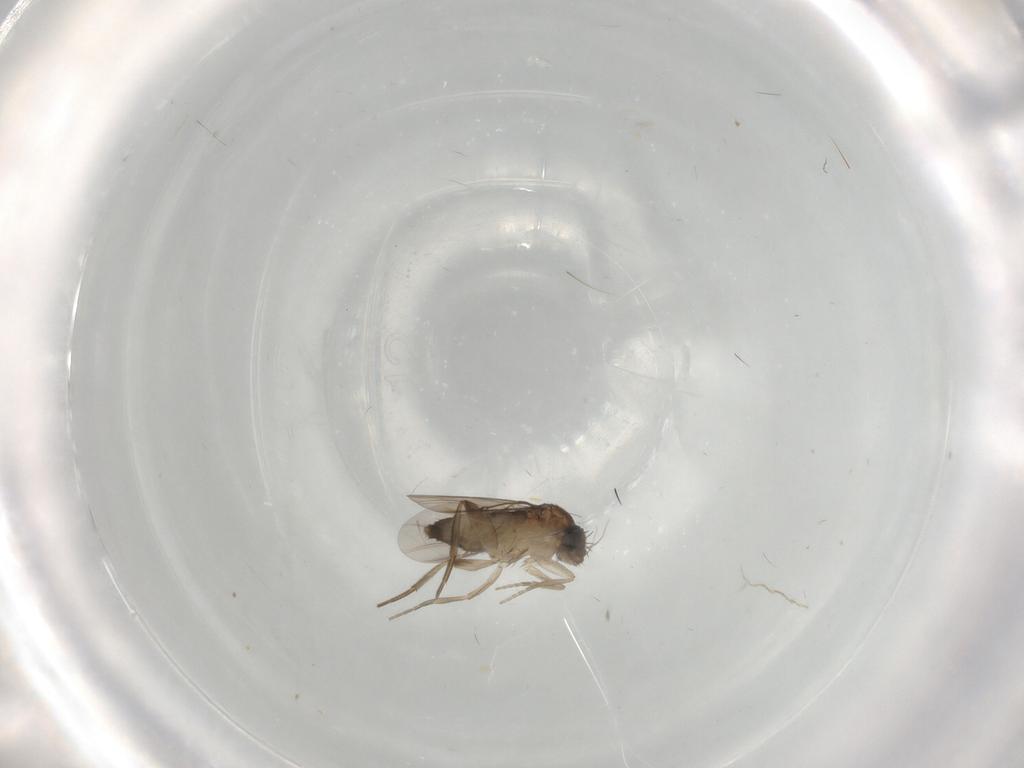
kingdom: Animalia
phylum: Arthropoda
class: Insecta
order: Diptera
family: Phoridae
